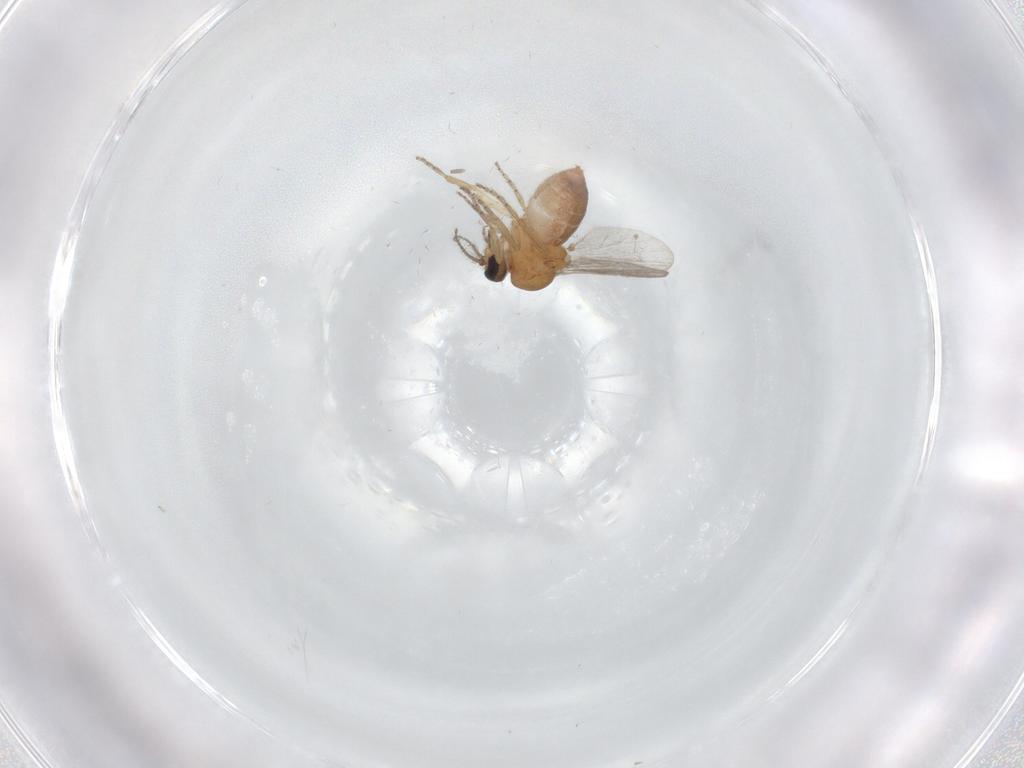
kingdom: Animalia
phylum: Arthropoda
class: Insecta
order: Diptera
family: Ceratopogonidae
